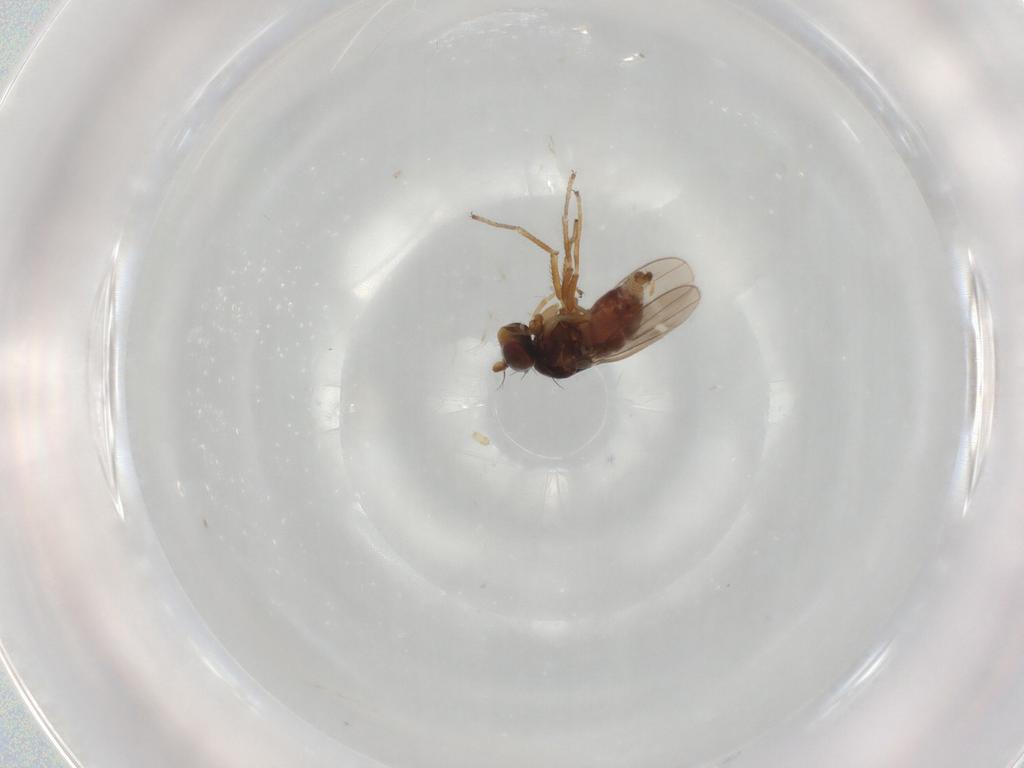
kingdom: Animalia
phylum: Arthropoda
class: Insecta
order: Diptera
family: Ephydridae
